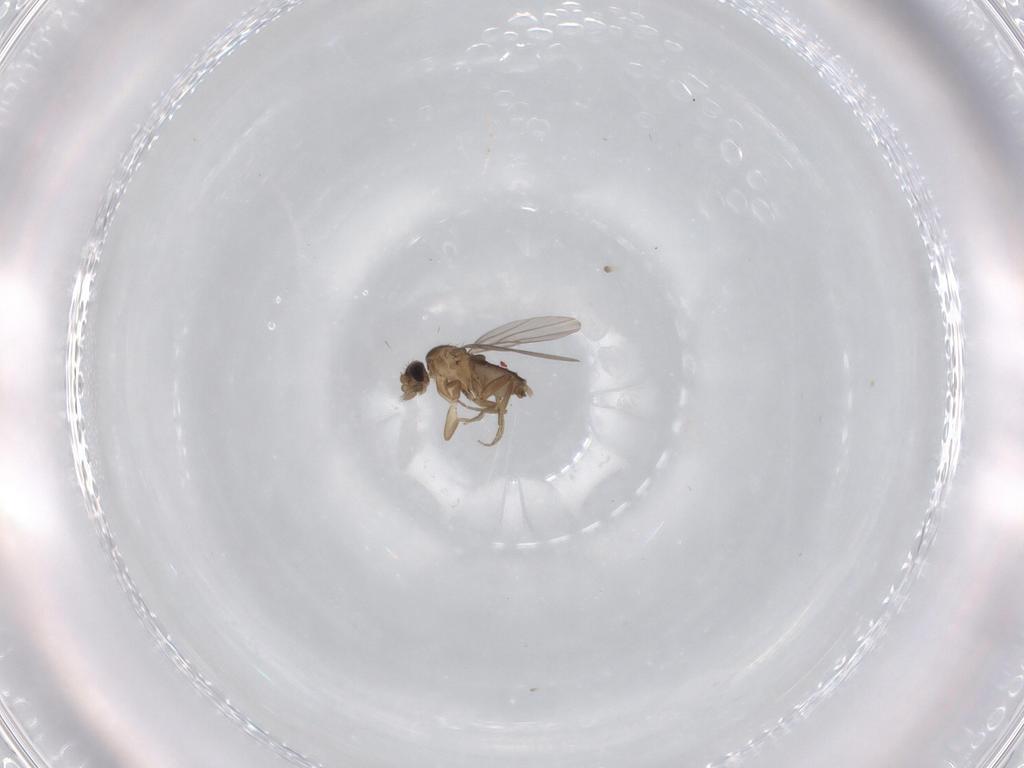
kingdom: Animalia
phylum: Arthropoda
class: Insecta
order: Diptera
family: Phoridae
